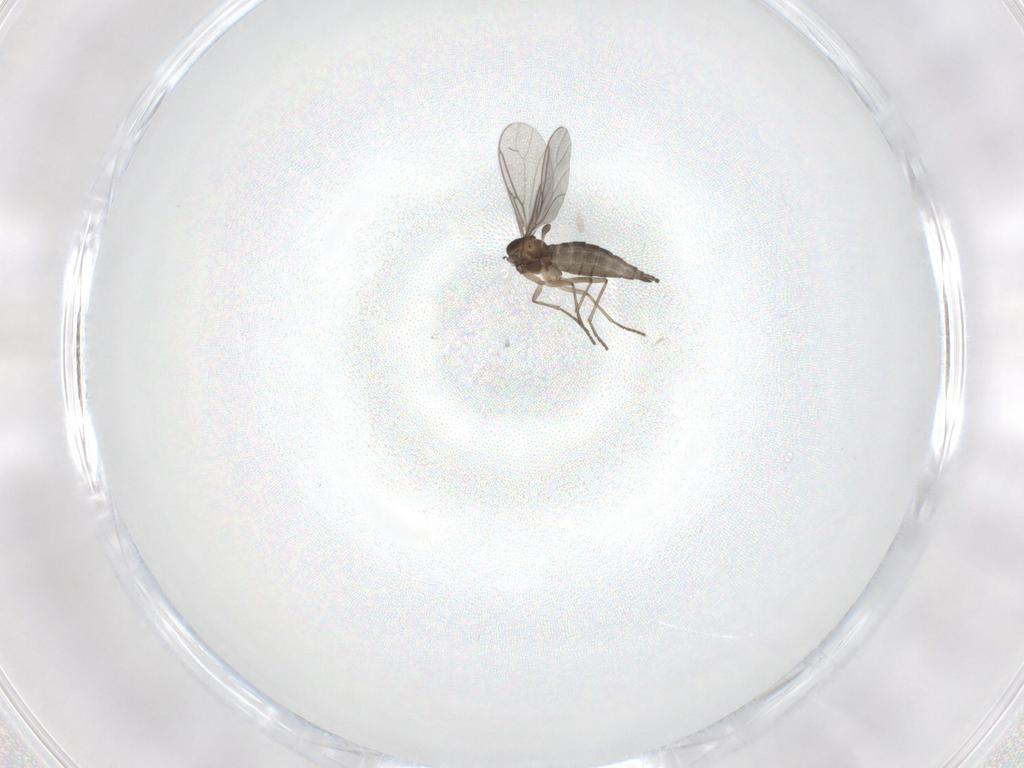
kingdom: Animalia
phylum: Arthropoda
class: Insecta
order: Diptera
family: Sciaridae
